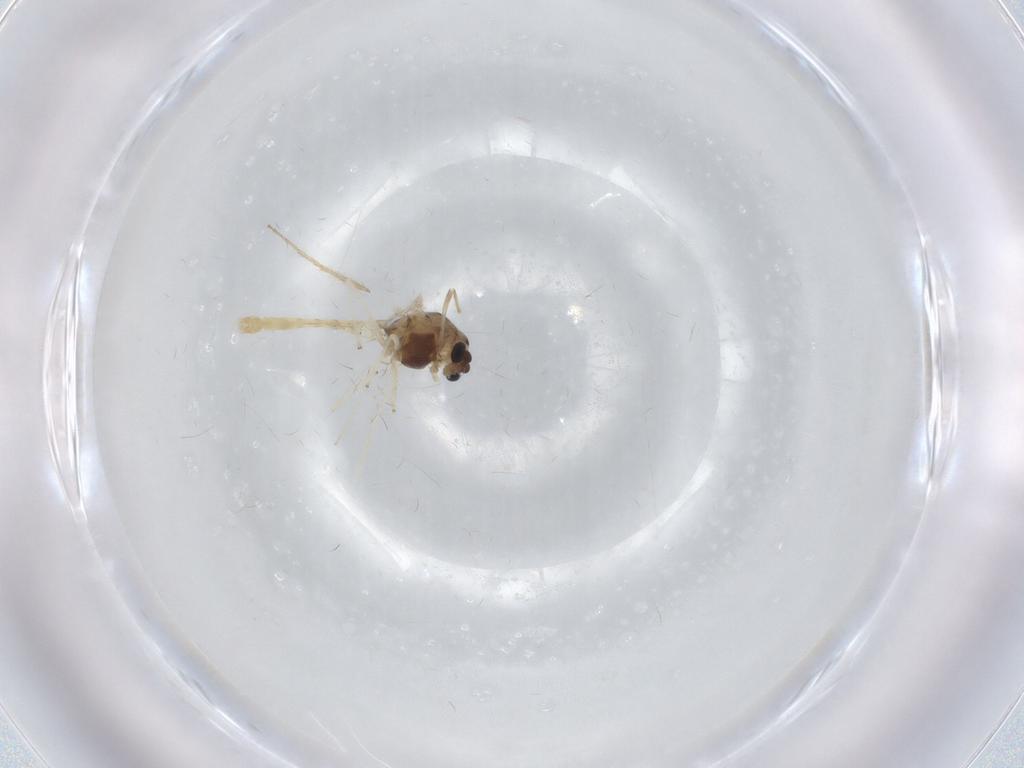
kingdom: Animalia
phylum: Arthropoda
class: Insecta
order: Diptera
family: Chironomidae
